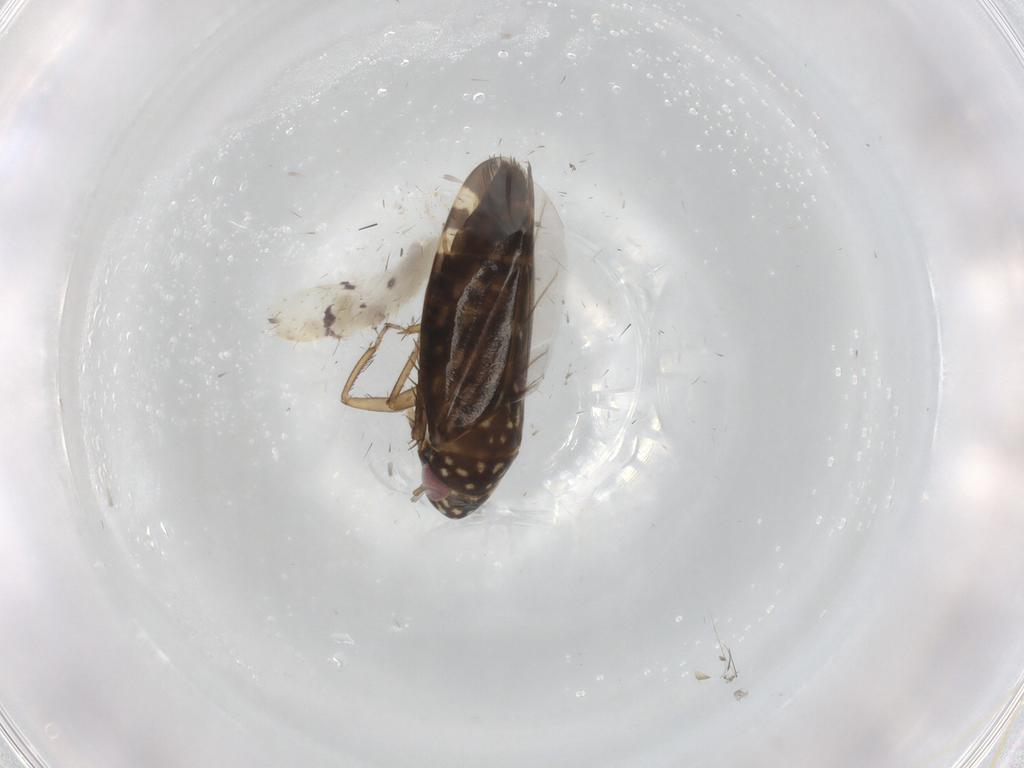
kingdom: Animalia
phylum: Arthropoda
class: Insecta
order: Hemiptera
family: Cicadellidae
